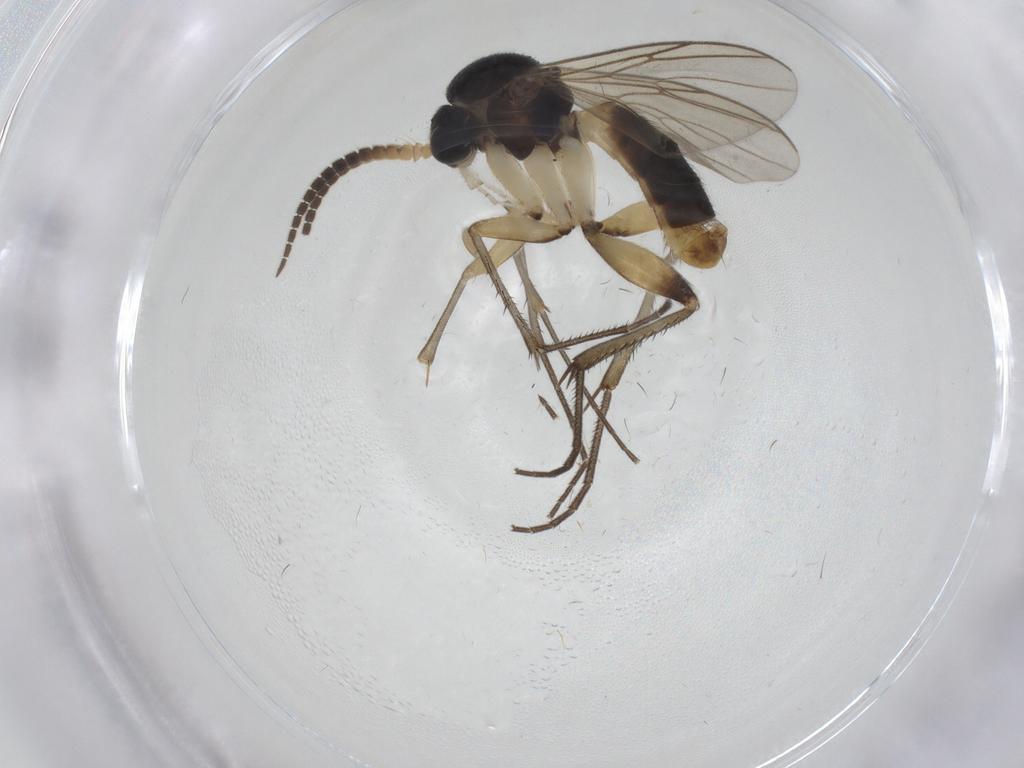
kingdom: Animalia
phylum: Arthropoda
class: Insecta
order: Diptera
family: Mycetophilidae
